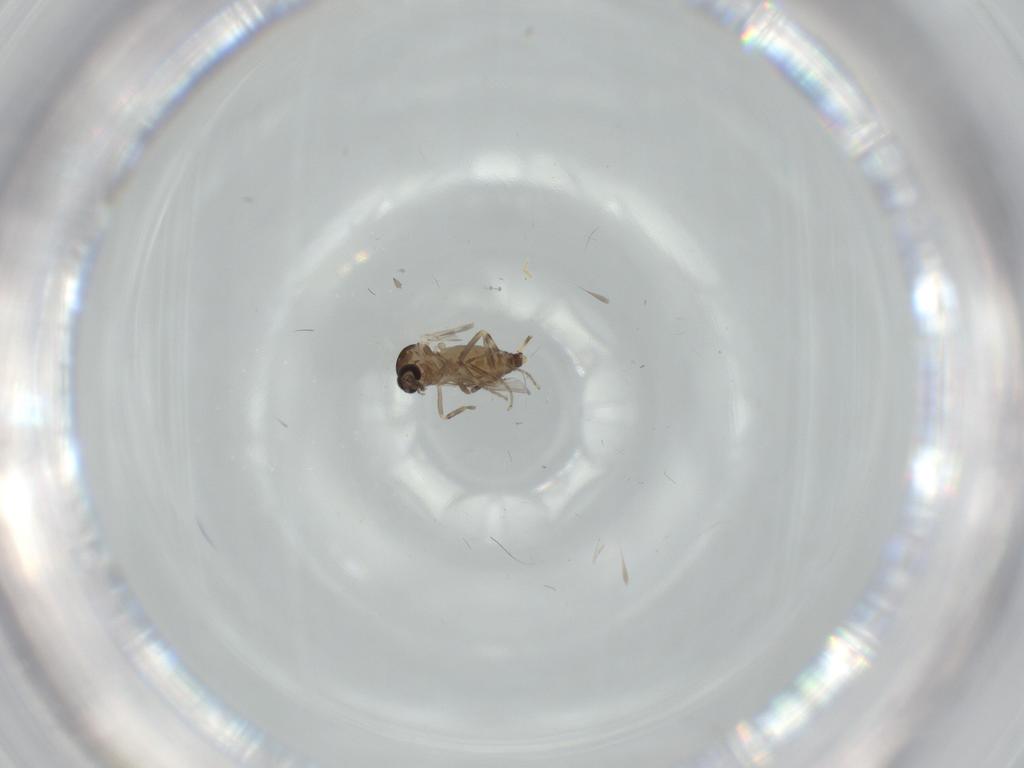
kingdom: Animalia
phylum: Arthropoda
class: Insecta
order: Diptera
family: Ceratopogonidae
